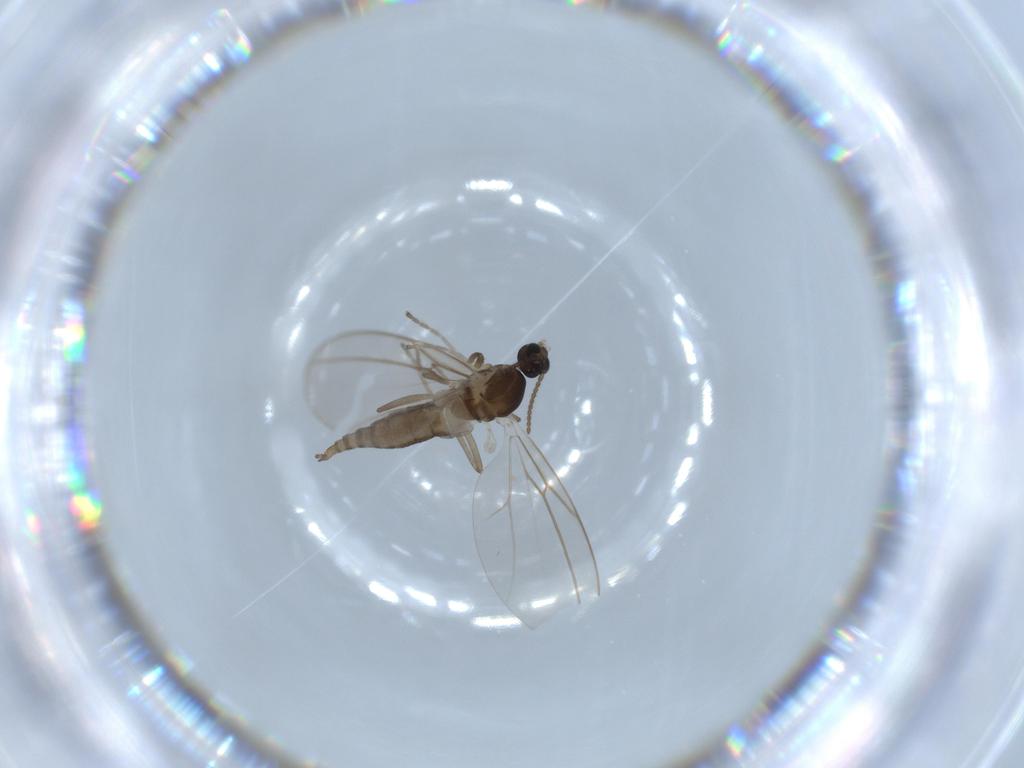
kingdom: Animalia
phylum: Arthropoda
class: Insecta
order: Diptera
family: Cecidomyiidae
